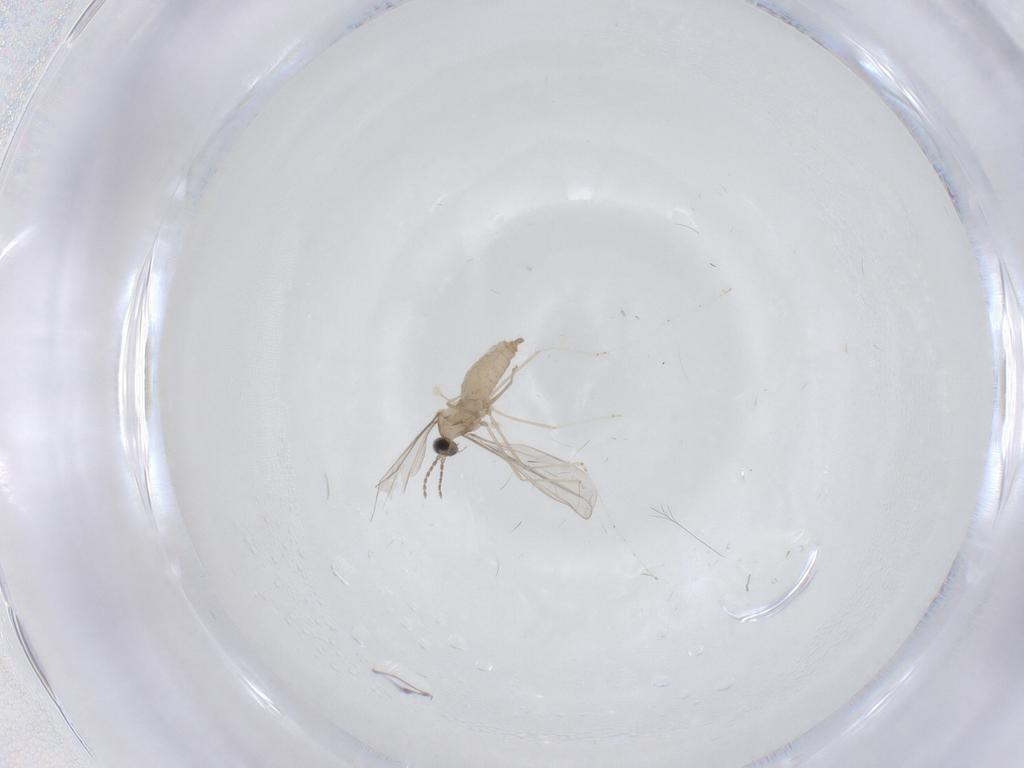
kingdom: Animalia
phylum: Arthropoda
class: Insecta
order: Diptera
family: Cecidomyiidae
